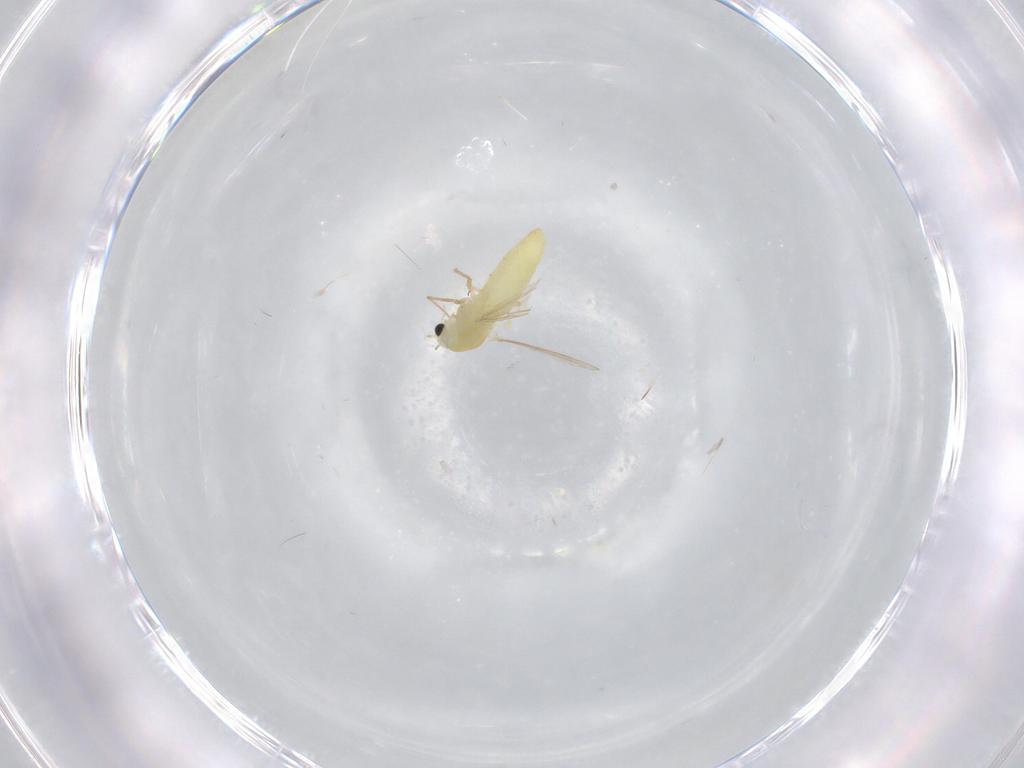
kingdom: Animalia
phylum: Arthropoda
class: Insecta
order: Diptera
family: Chironomidae
